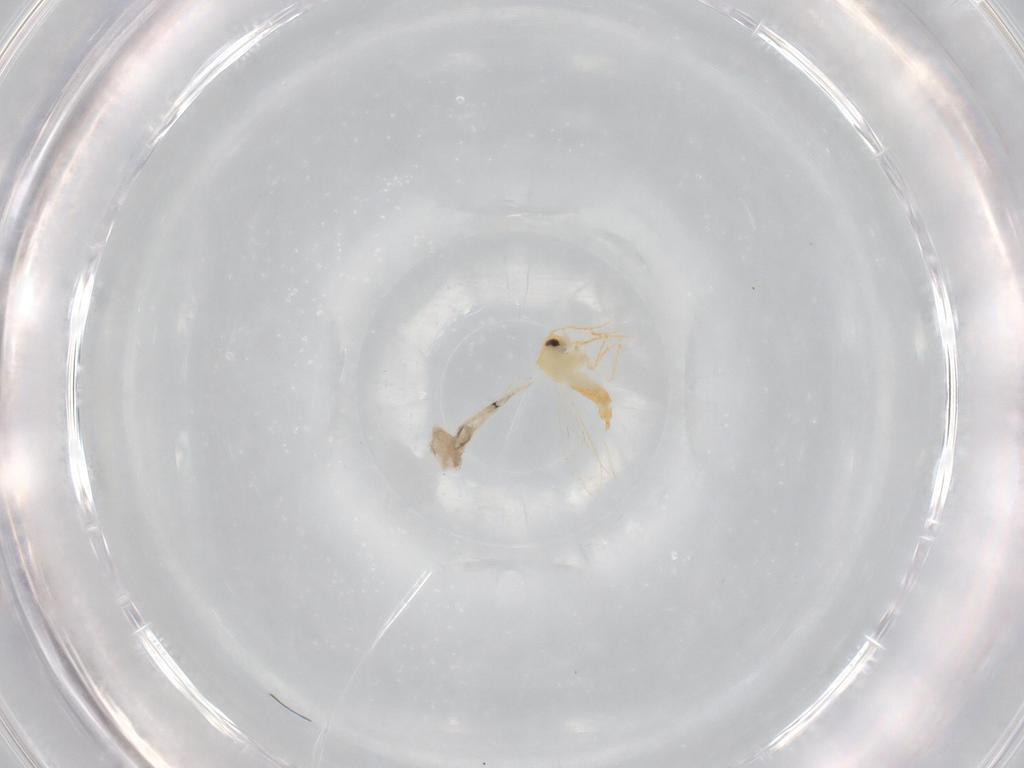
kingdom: Animalia
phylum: Arthropoda
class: Insecta
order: Hemiptera
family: Aleyrodidae
